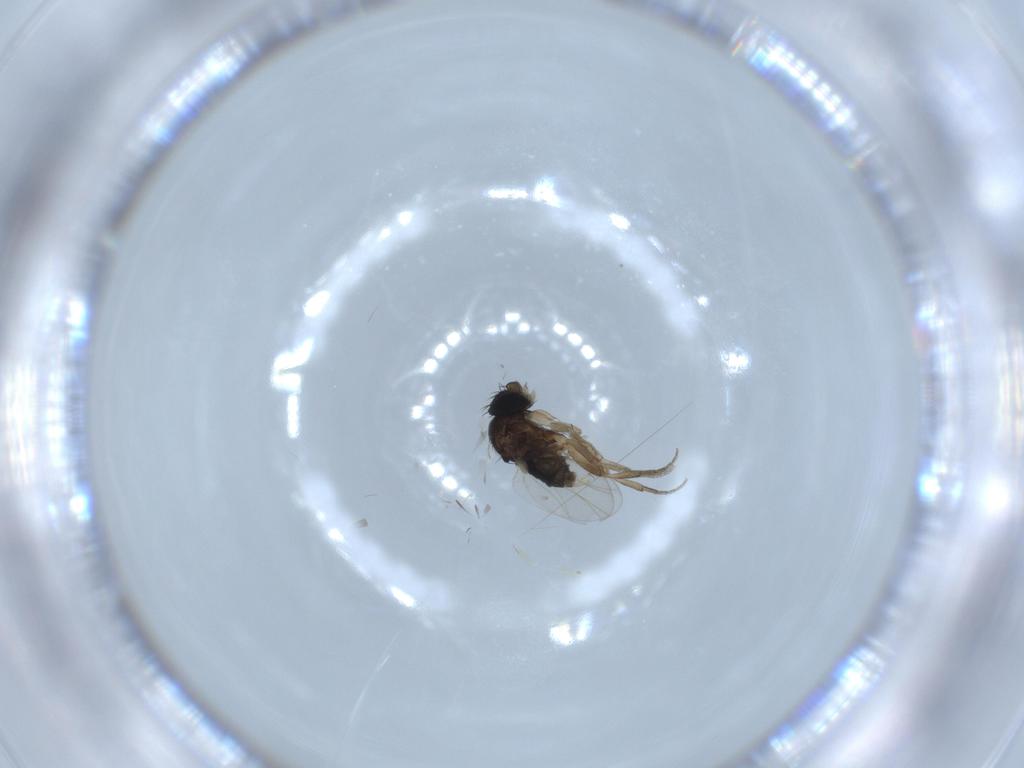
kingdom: Animalia
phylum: Arthropoda
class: Insecta
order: Diptera
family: Phoridae
